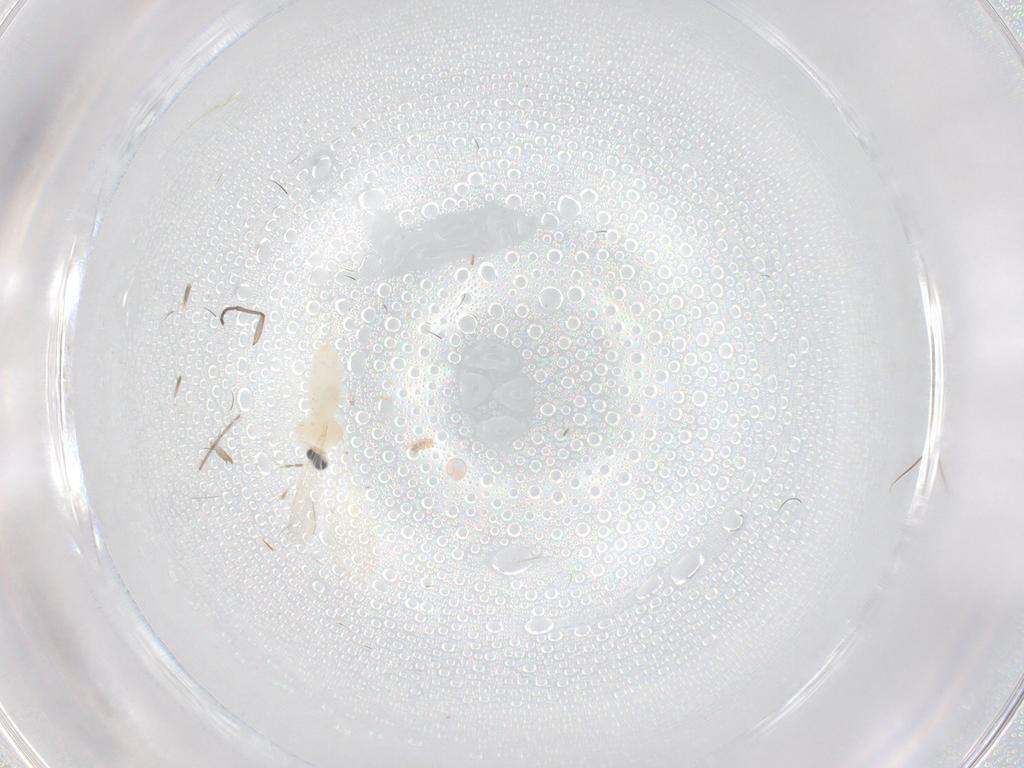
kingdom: Animalia
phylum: Arthropoda
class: Insecta
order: Diptera
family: Cecidomyiidae
